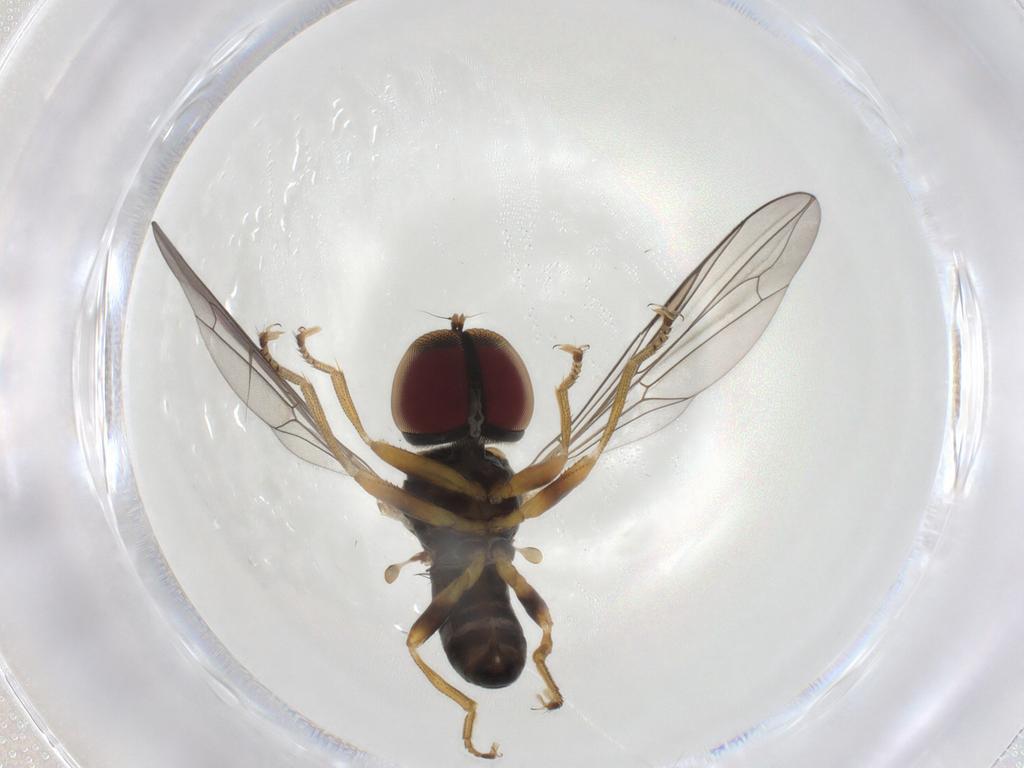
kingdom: Animalia
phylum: Arthropoda
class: Insecta
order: Diptera
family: Pipunculidae
